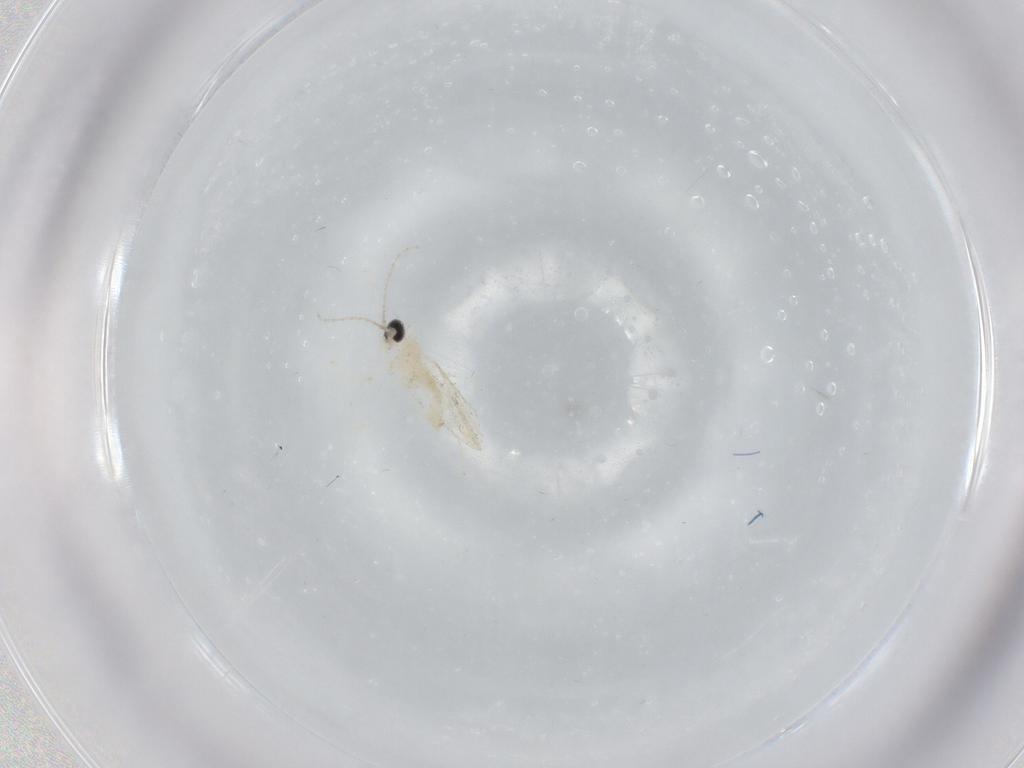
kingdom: Animalia
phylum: Arthropoda
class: Insecta
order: Diptera
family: Cecidomyiidae
